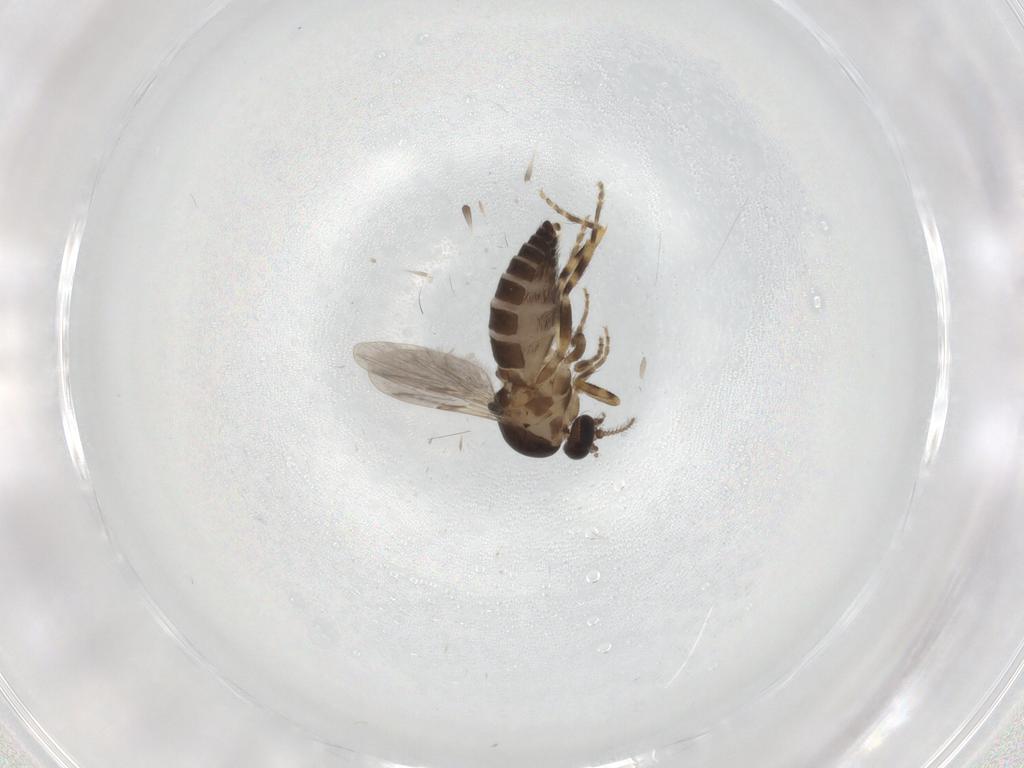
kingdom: Animalia
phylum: Arthropoda
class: Insecta
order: Diptera
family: Ceratopogonidae
